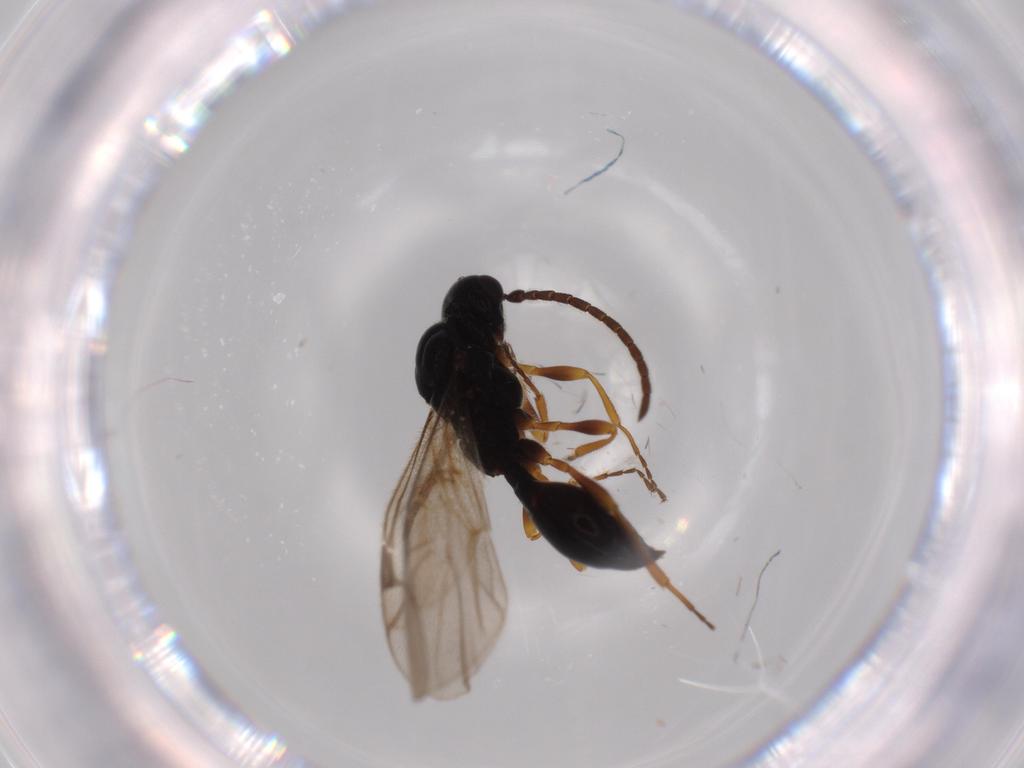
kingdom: Animalia
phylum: Arthropoda
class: Insecta
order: Hymenoptera
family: Proctotrupidae
